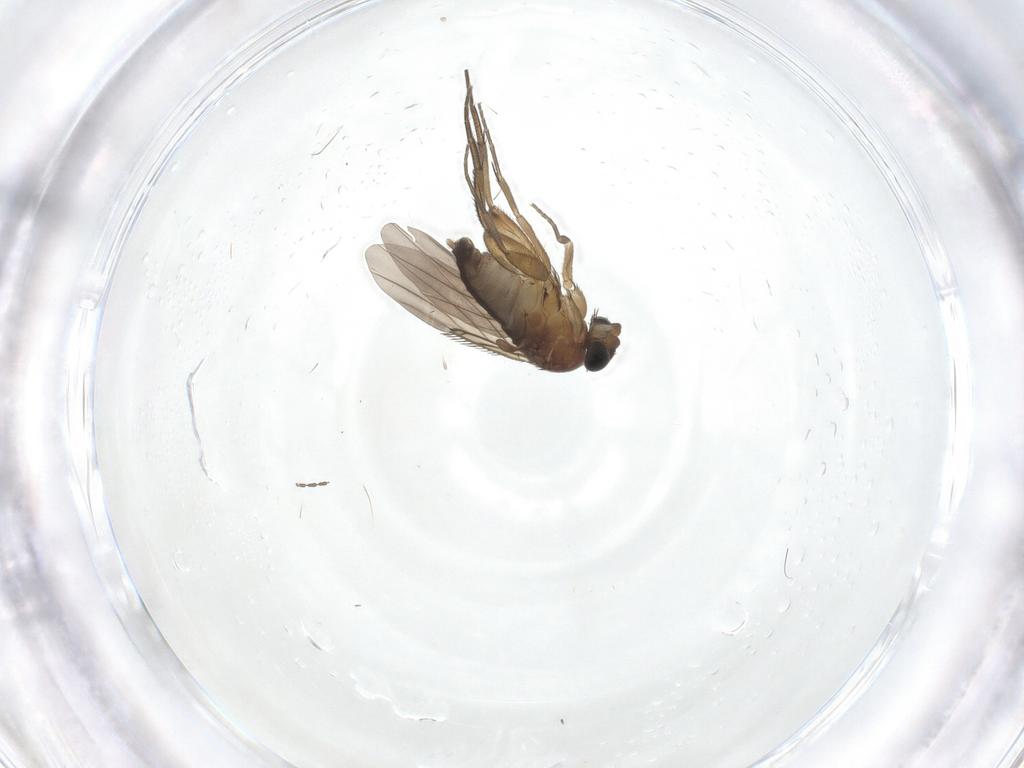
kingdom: Animalia
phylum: Arthropoda
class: Insecta
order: Diptera
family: Phoridae
